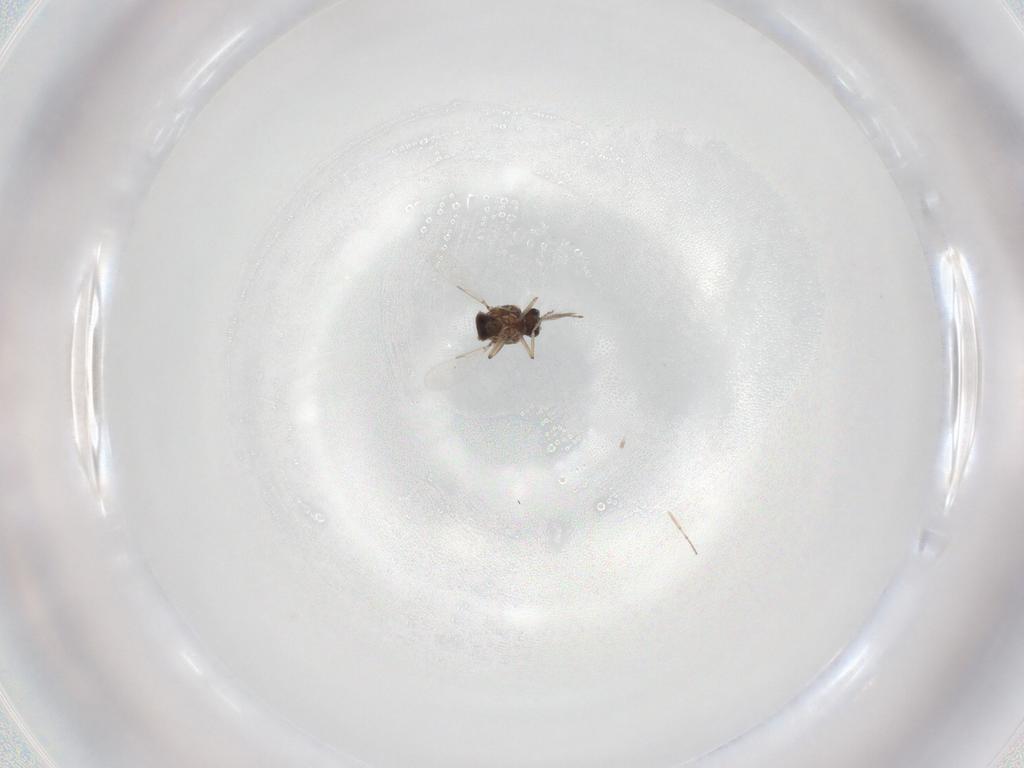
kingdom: Animalia
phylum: Arthropoda
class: Insecta
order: Diptera
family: Ceratopogonidae
